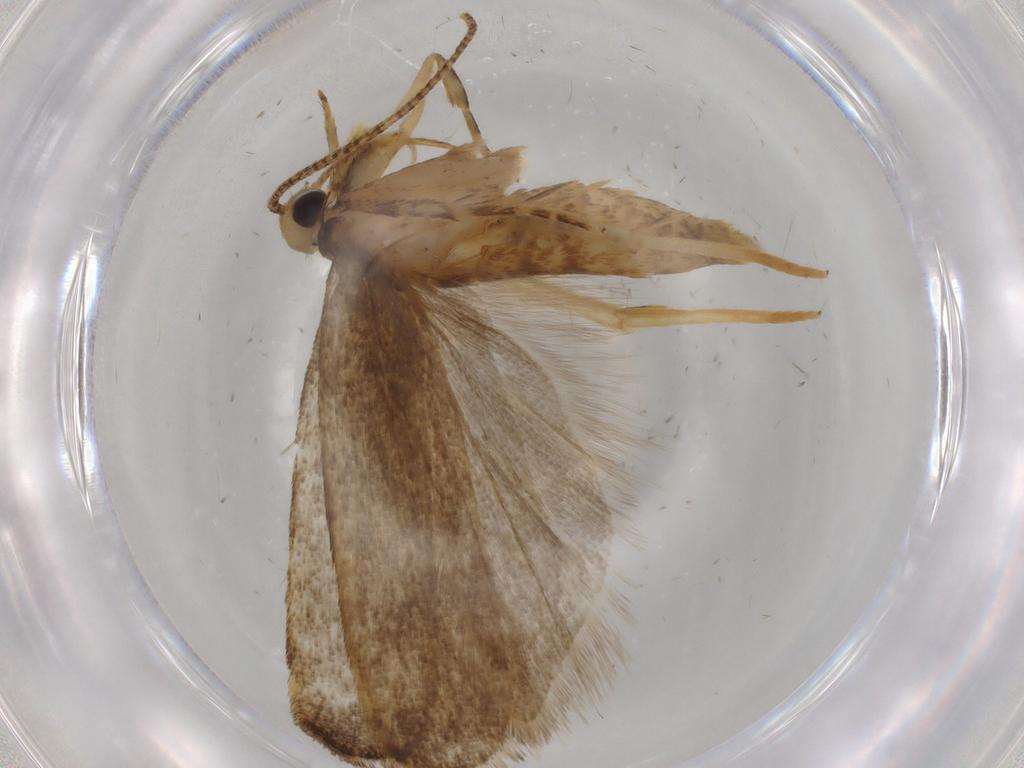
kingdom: Animalia
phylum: Arthropoda
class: Insecta
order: Lepidoptera
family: Autostichidae
